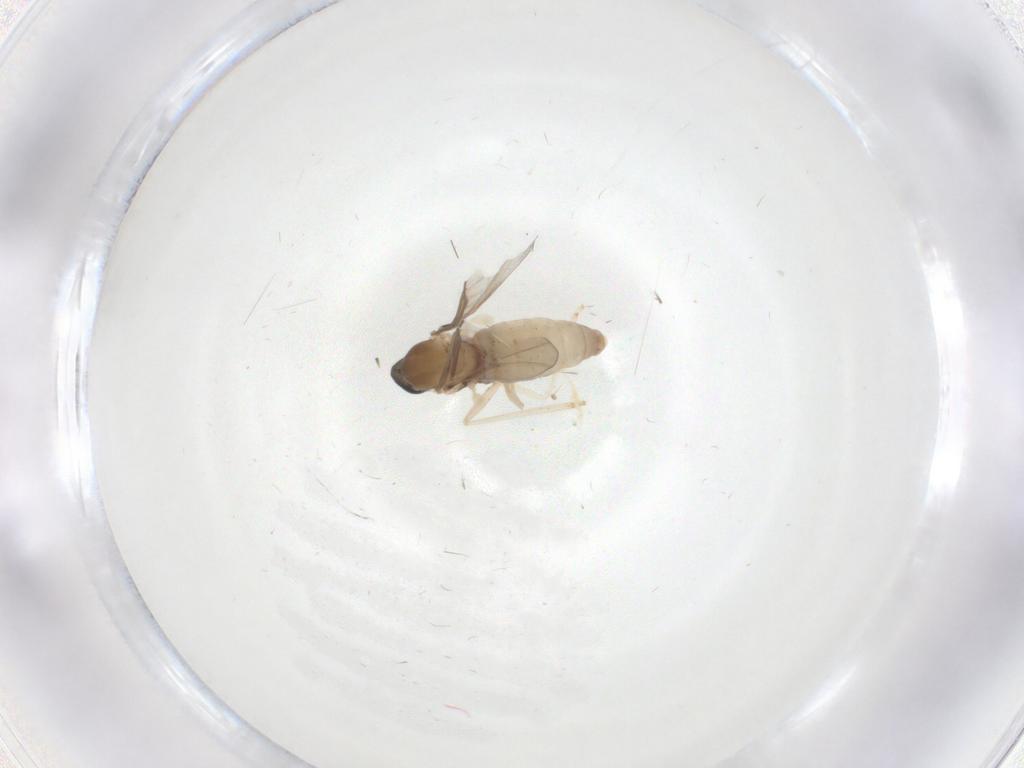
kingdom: Animalia
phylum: Arthropoda
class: Insecta
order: Diptera
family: Cecidomyiidae
